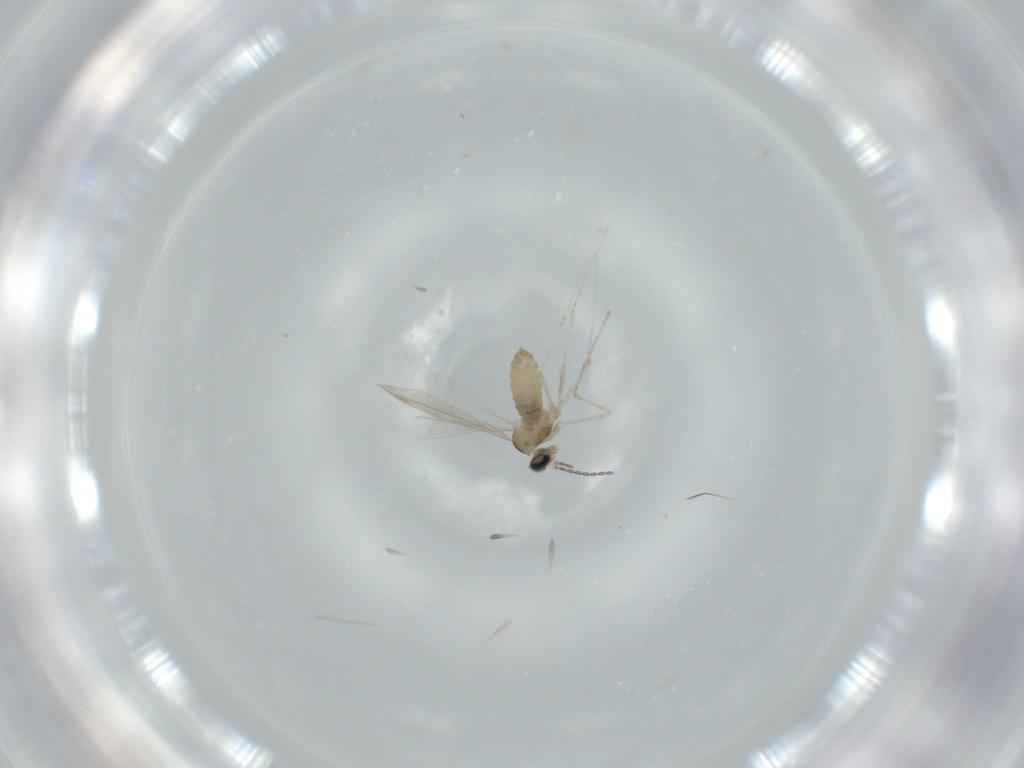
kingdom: Animalia
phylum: Arthropoda
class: Insecta
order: Diptera
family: Cecidomyiidae
